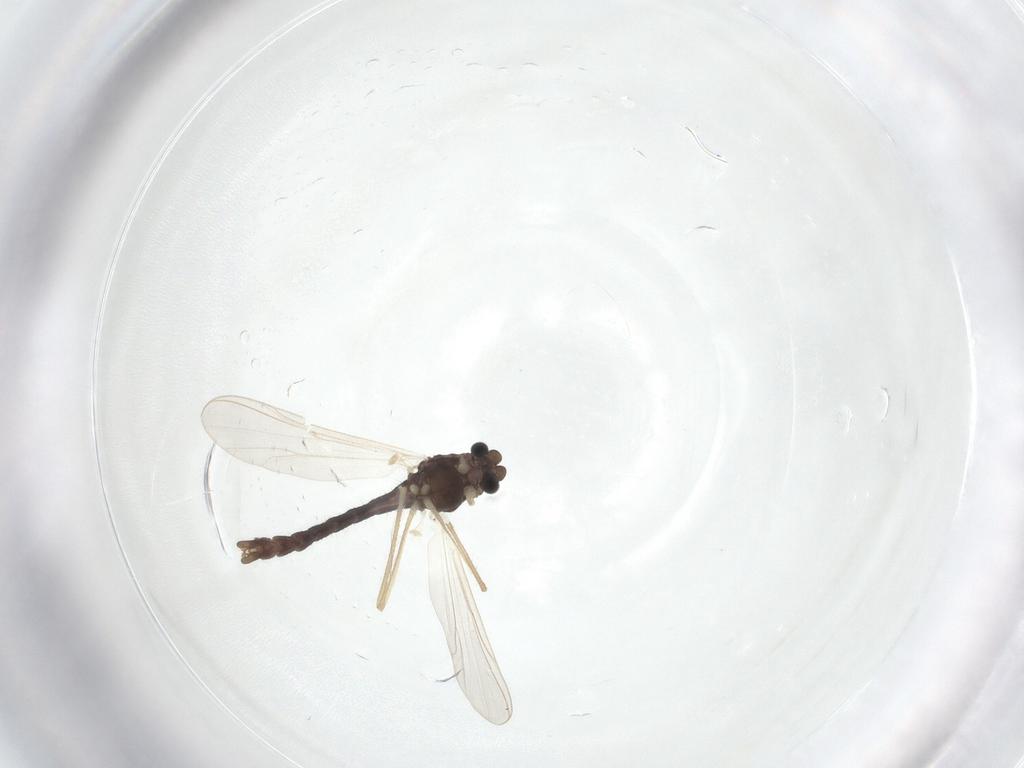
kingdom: Animalia
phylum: Arthropoda
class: Insecta
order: Diptera
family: Chironomidae
